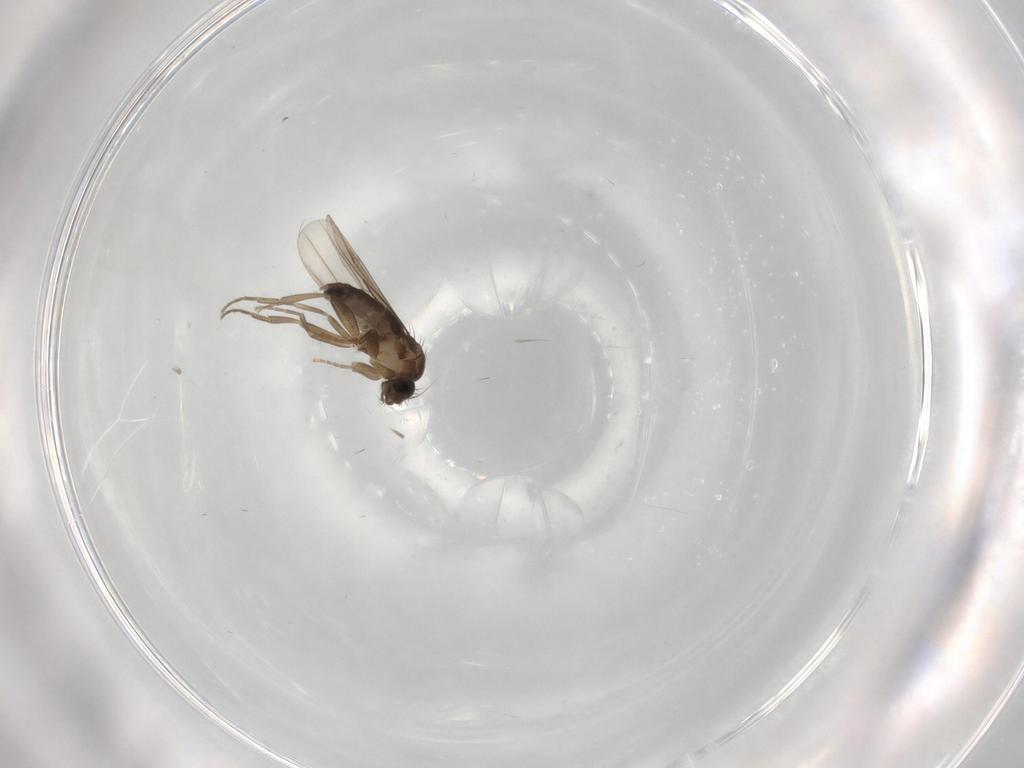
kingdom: Animalia
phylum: Arthropoda
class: Insecta
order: Diptera
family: Phoridae
